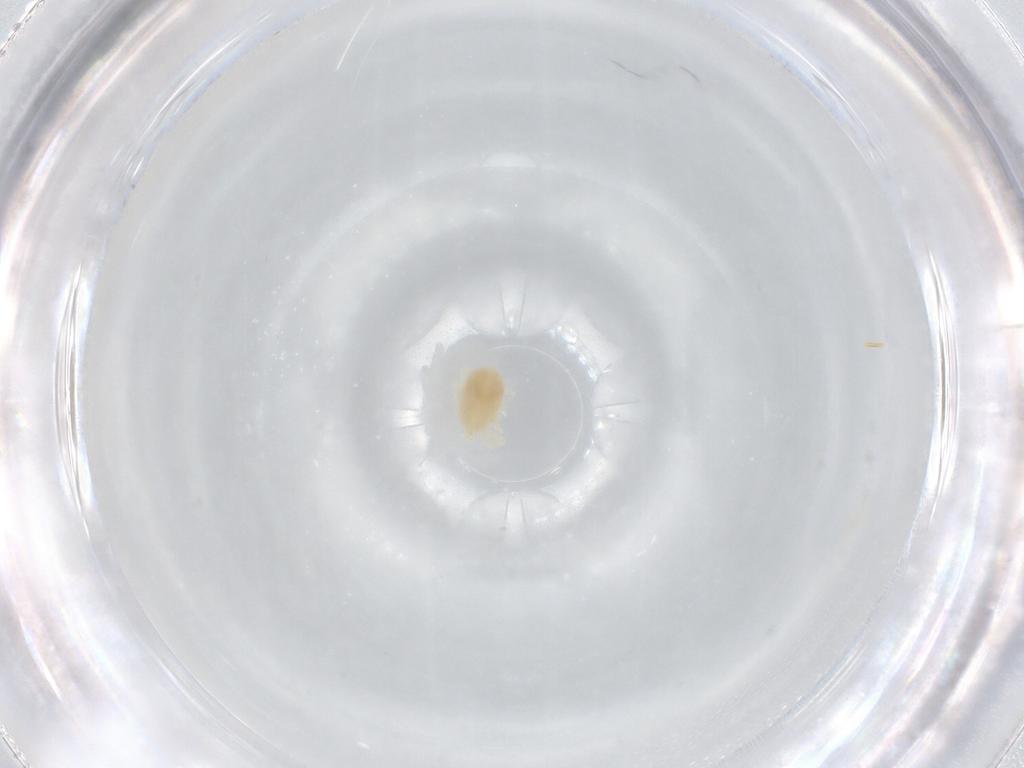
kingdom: Animalia
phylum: Arthropoda
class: Arachnida
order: Trombidiformes
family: Anystidae
